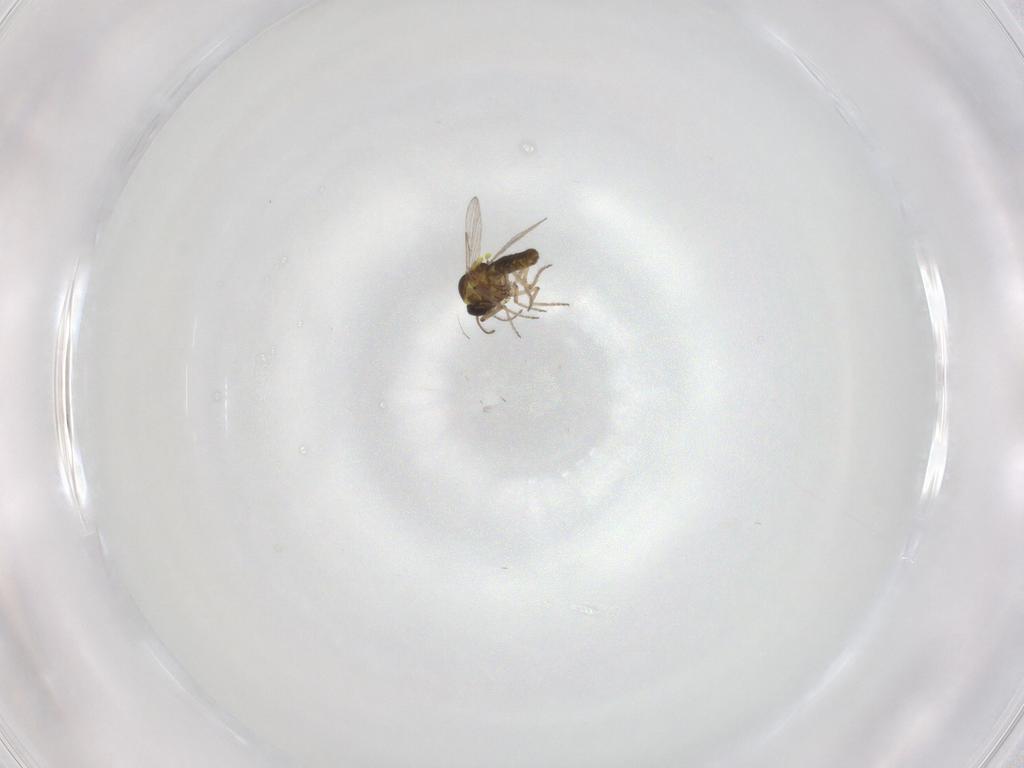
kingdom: Animalia
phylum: Arthropoda
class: Insecta
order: Diptera
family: Ceratopogonidae
